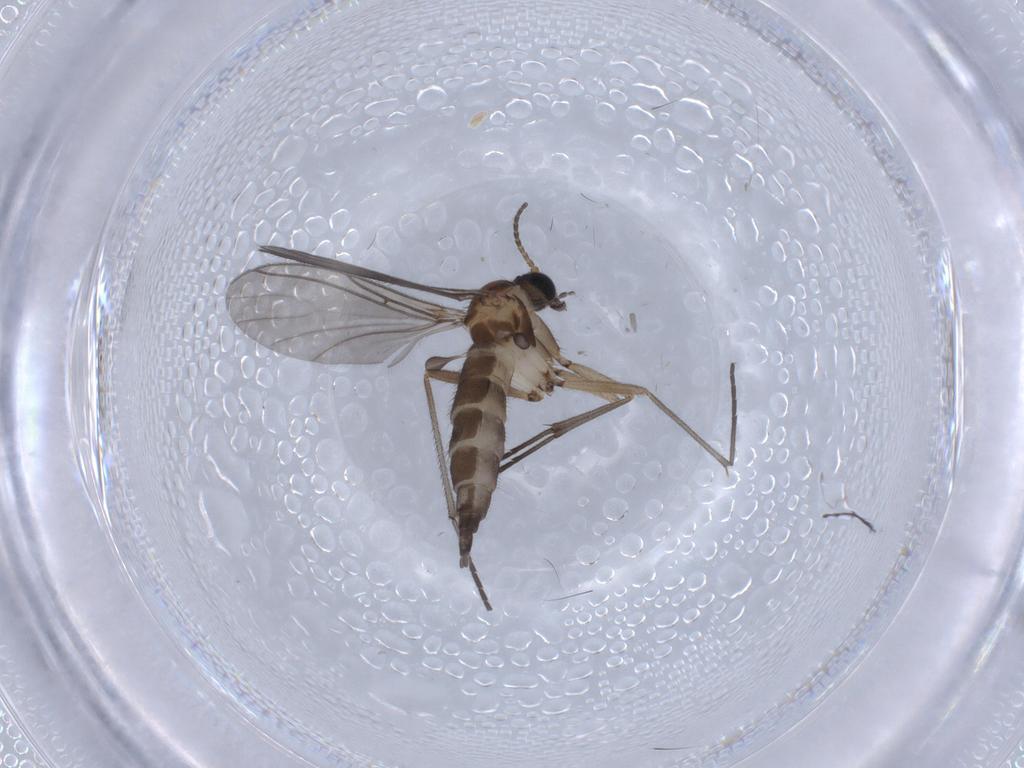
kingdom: Animalia
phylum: Arthropoda
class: Insecta
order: Diptera
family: Sciaridae
